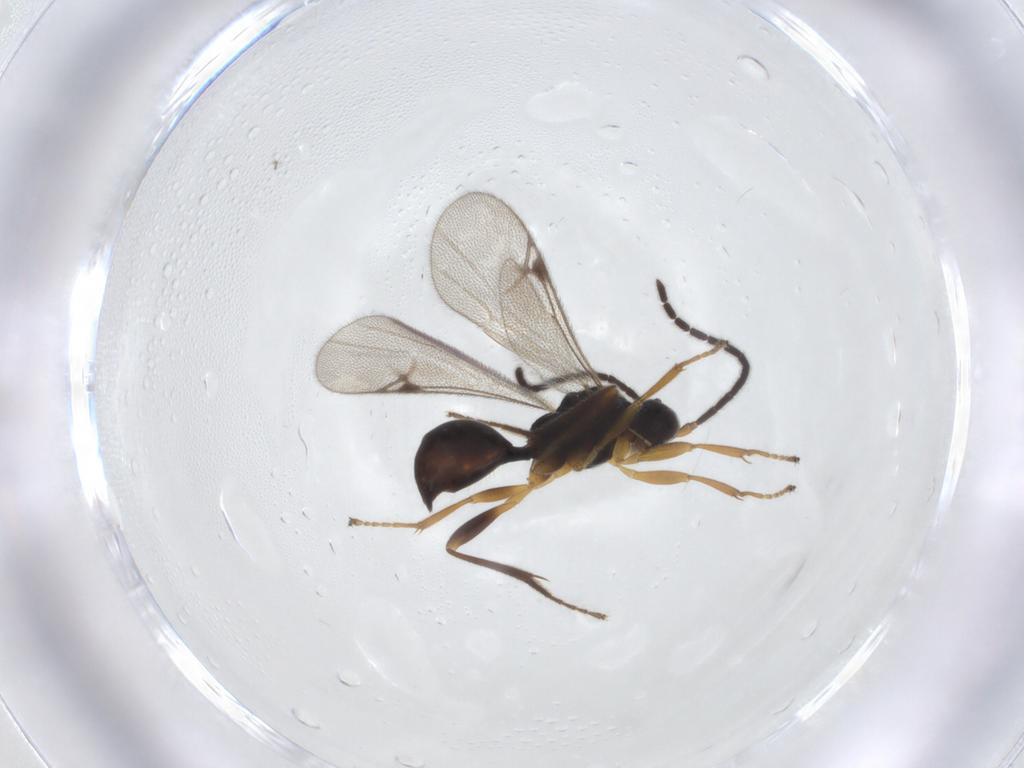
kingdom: Animalia
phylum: Arthropoda
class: Insecta
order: Hymenoptera
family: Proctotrupidae
